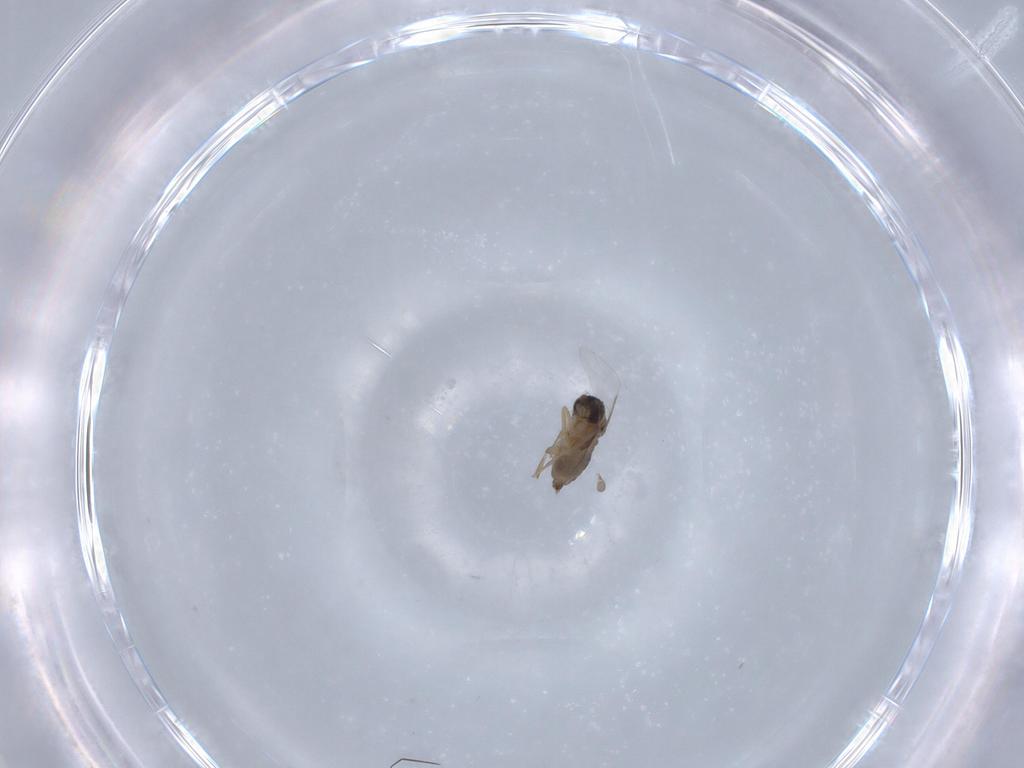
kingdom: Animalia
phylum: Arthropoda
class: Insecta
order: Diptera
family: Phoridae
